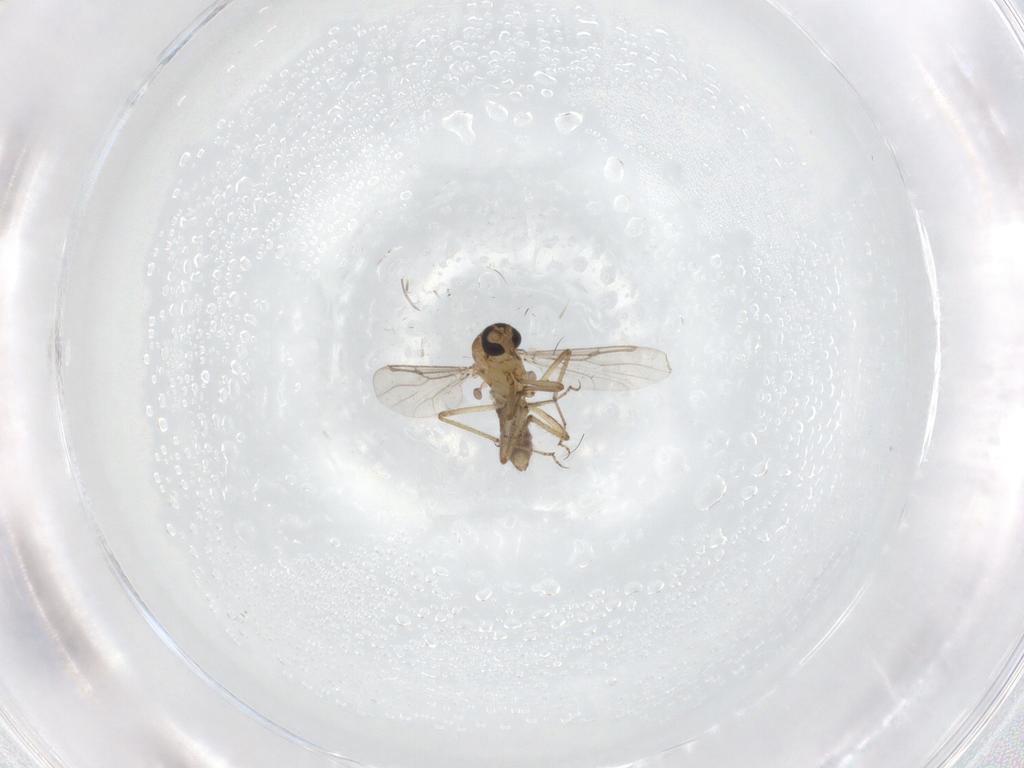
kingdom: Animalia
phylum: Arthropoda
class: Insecta
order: Diptera
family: Ceratopogonidae
